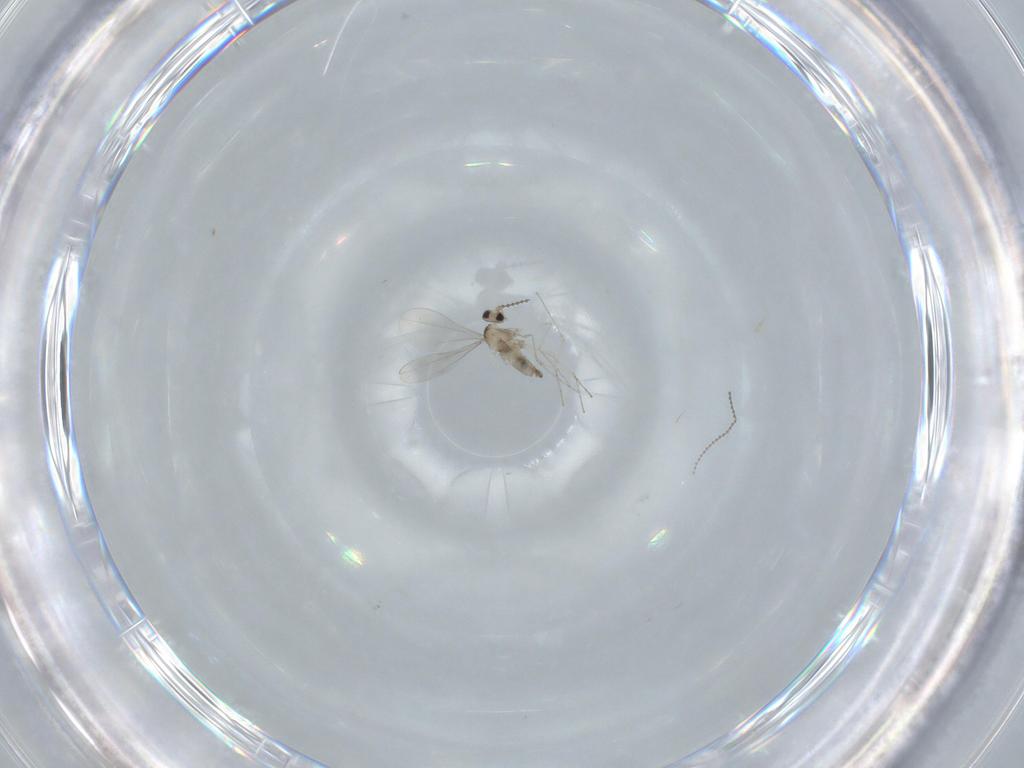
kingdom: Animalia
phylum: Arthropoda
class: Insecta
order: Diptera
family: Cecidomyiidae
